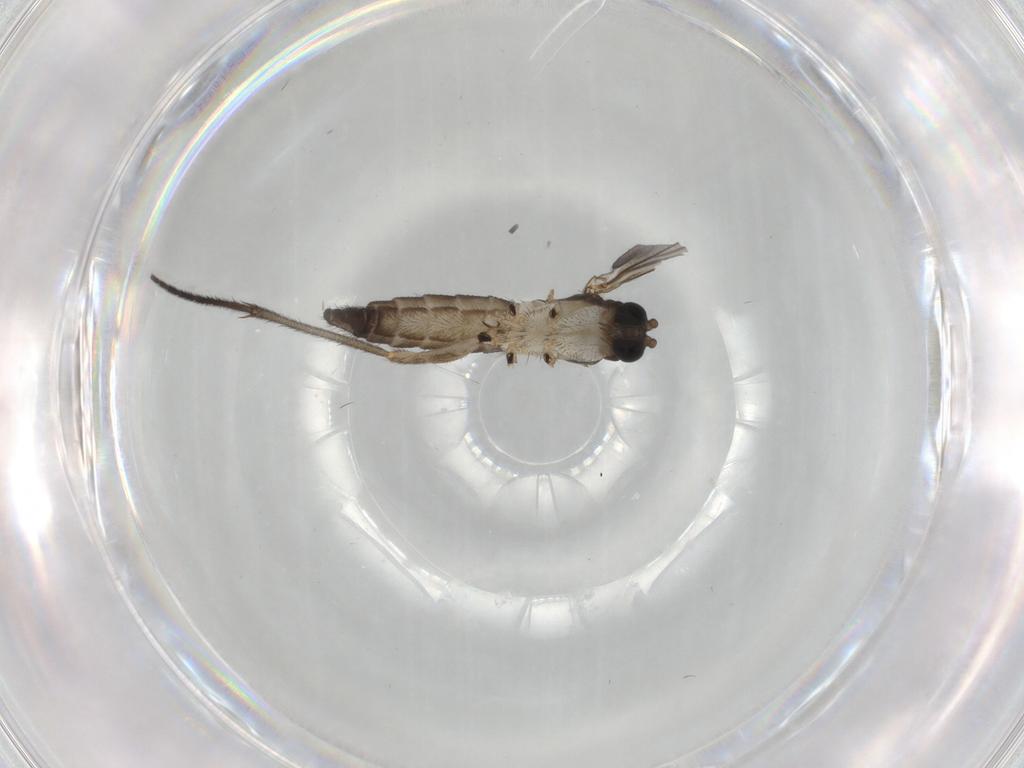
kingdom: Animalia
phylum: Arthropoda
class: Insecta
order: Diptera
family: Sciaridae
